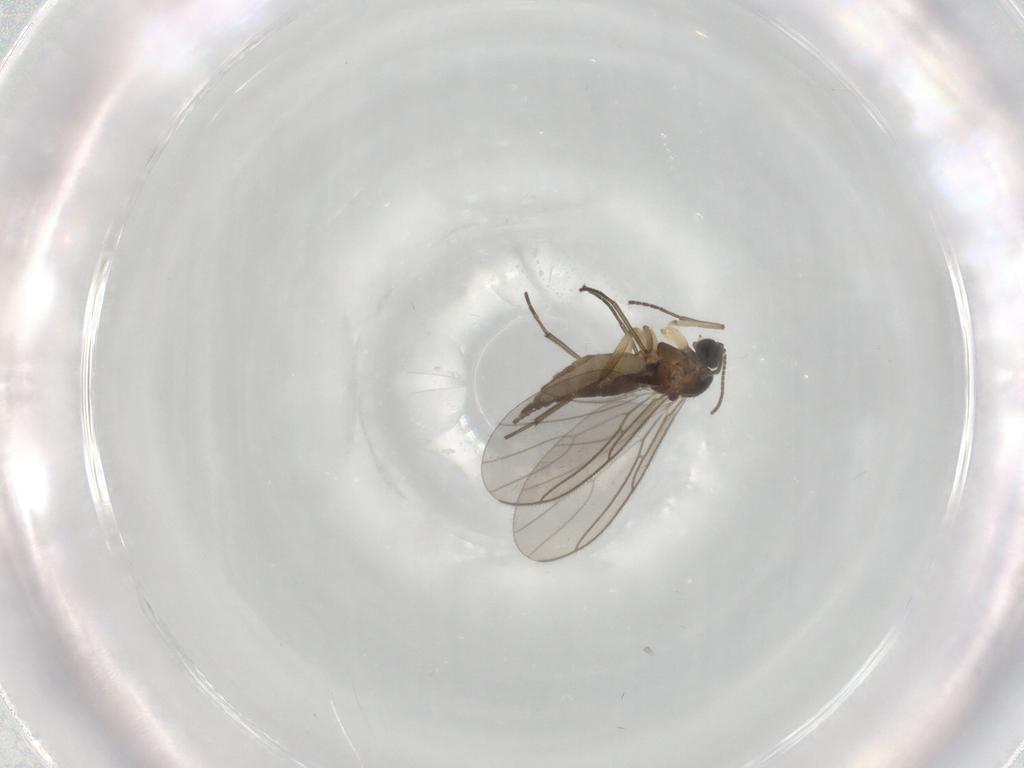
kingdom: Animalia
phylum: Arthropoda
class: Insecta
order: Diptera
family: Sciaridae
